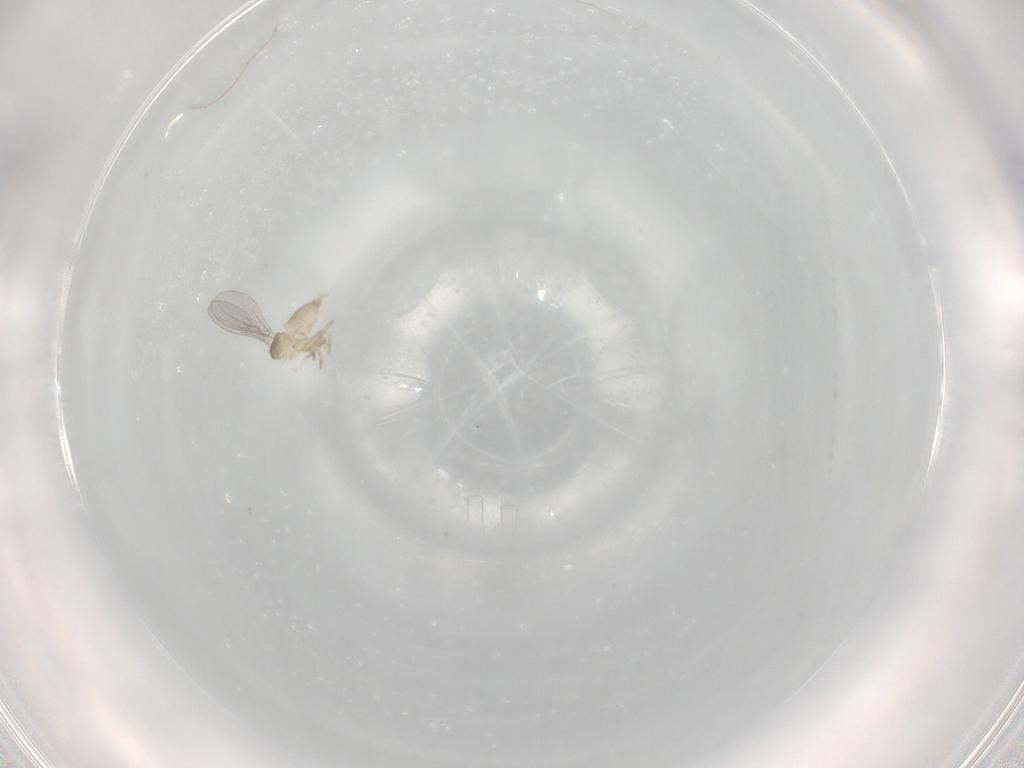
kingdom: Animalia
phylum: Arthropoda
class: Insecta
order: Diptera
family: Cecidomyiidae
